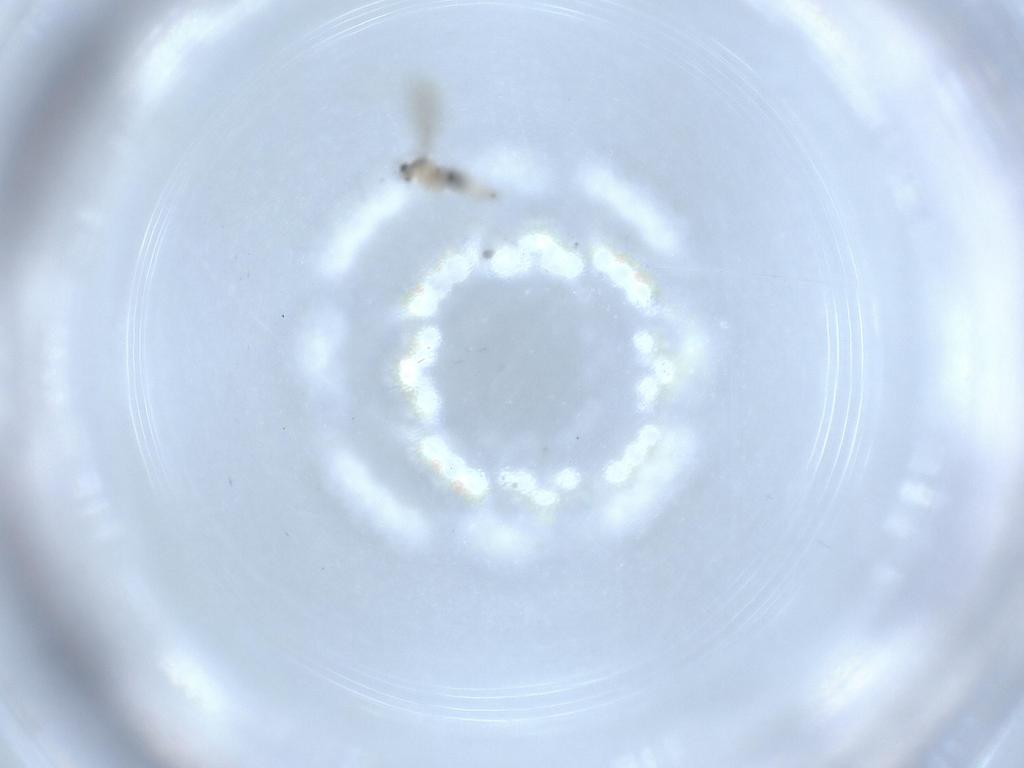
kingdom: Animalia
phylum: Arthropoda
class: Insecta
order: Diptera
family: Cecidomyiidae
